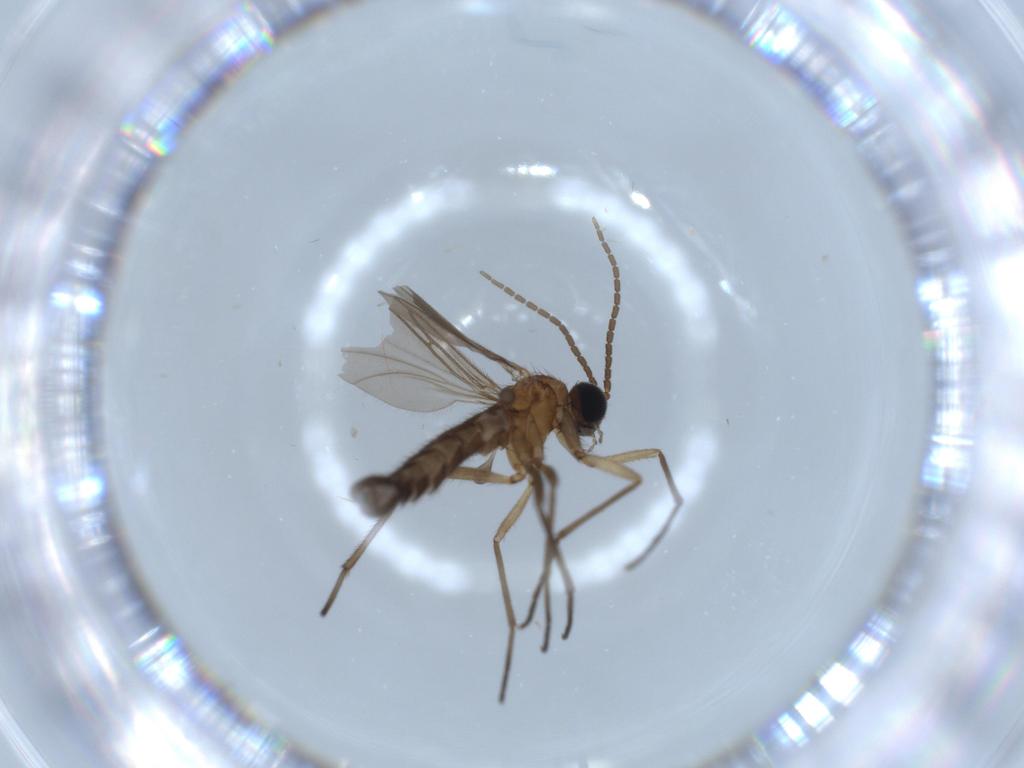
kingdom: Animalia
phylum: Arthropoda
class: Insecta
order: Diptera
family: Sciaridae
